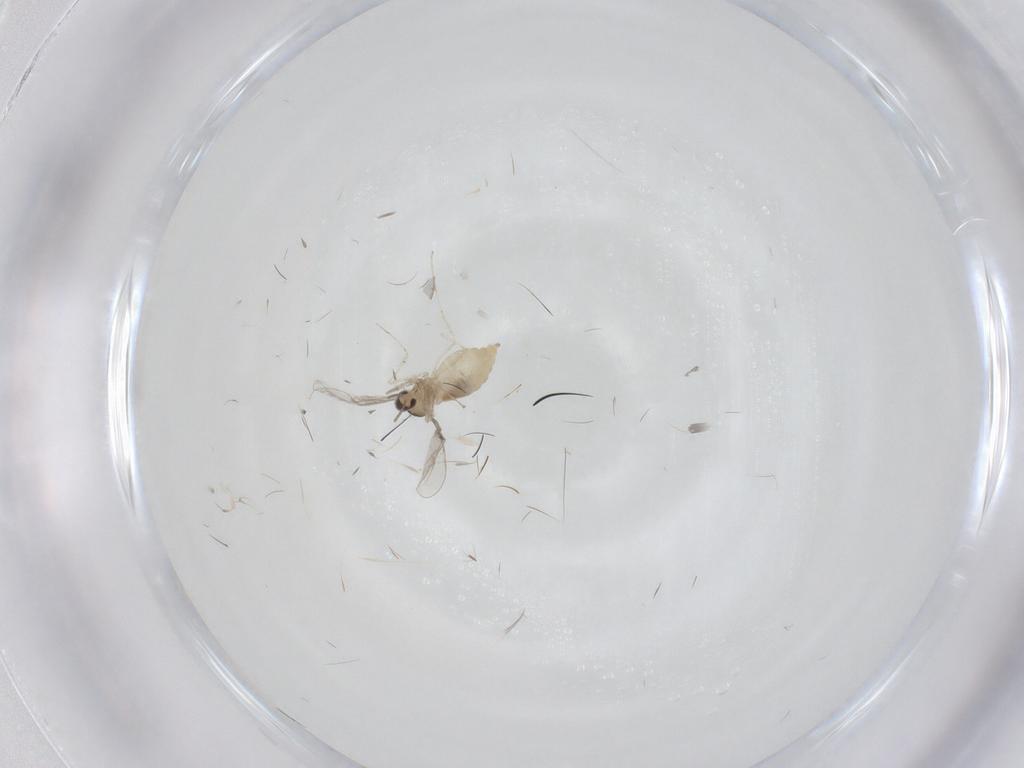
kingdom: Animalia
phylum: Arthropoda
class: Insecta
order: Diptera
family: Cecidomyiidae
